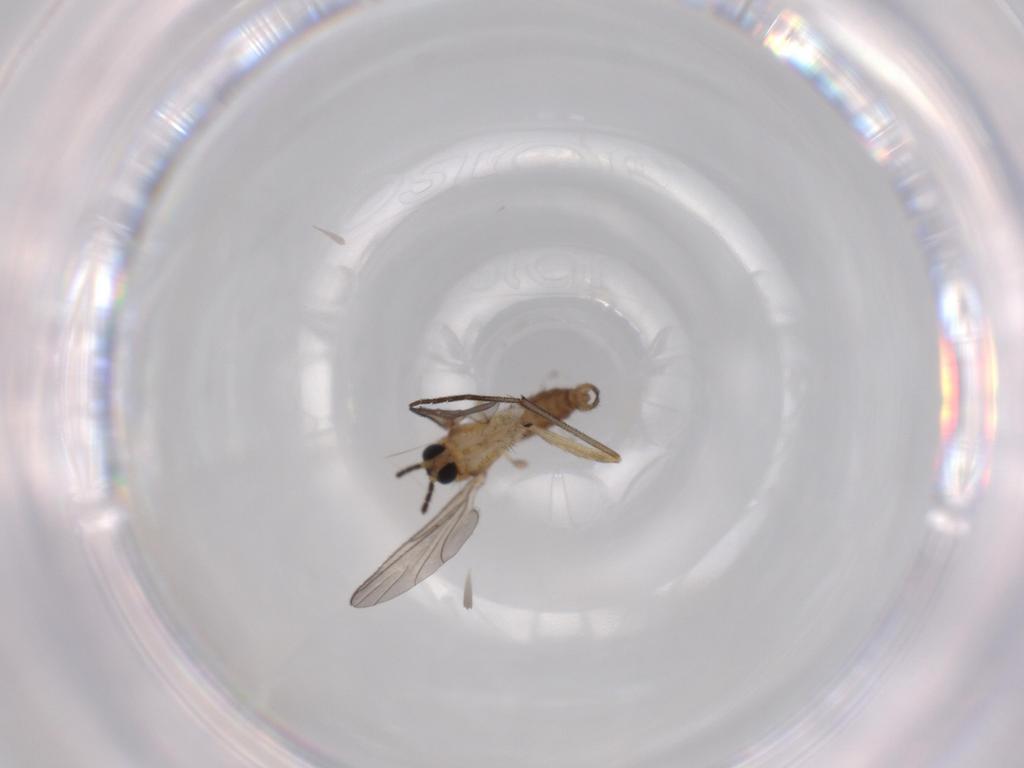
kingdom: Animalia
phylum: Arthropoda
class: Insecta
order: Diptera
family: Sciaridae
